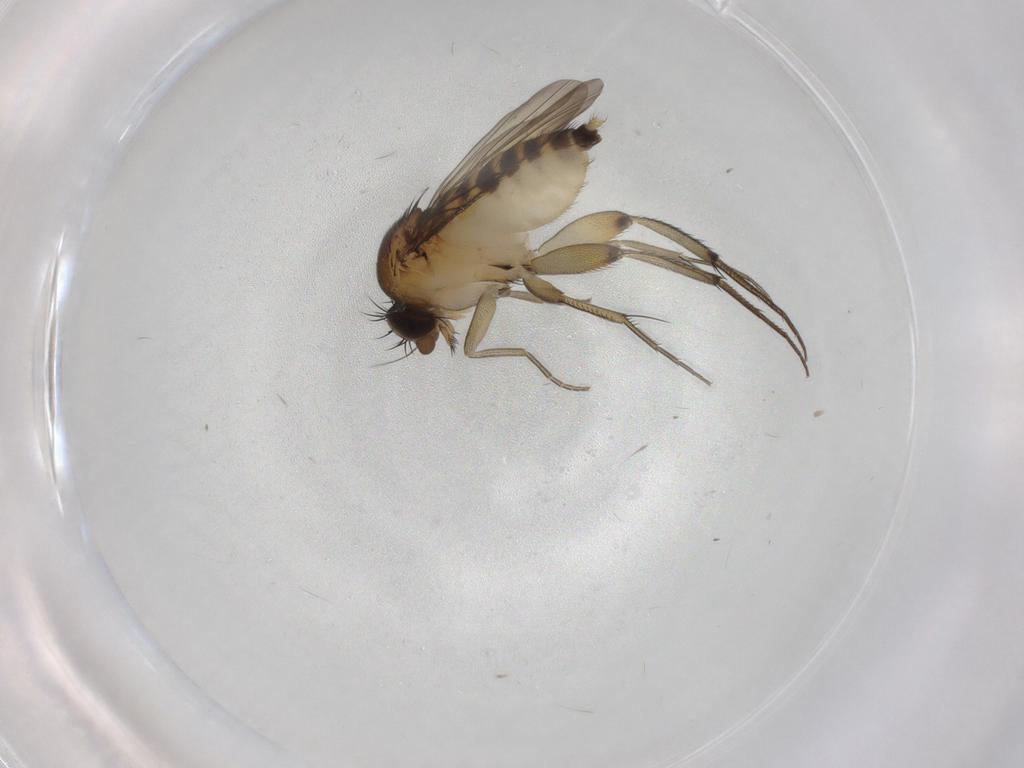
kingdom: Animalia
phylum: Arthropoda
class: Insecta
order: Diptera
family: Phoridae
